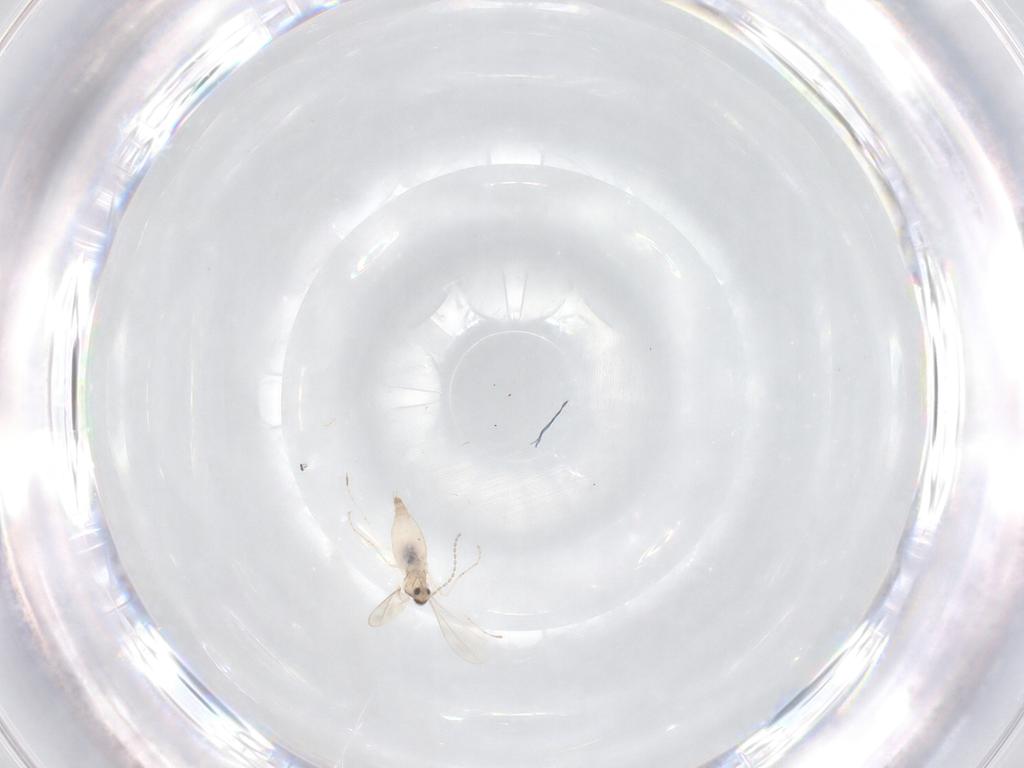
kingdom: Animalia
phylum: Arthropoda
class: Insecta
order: Diptera
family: Cecidomyiidae
